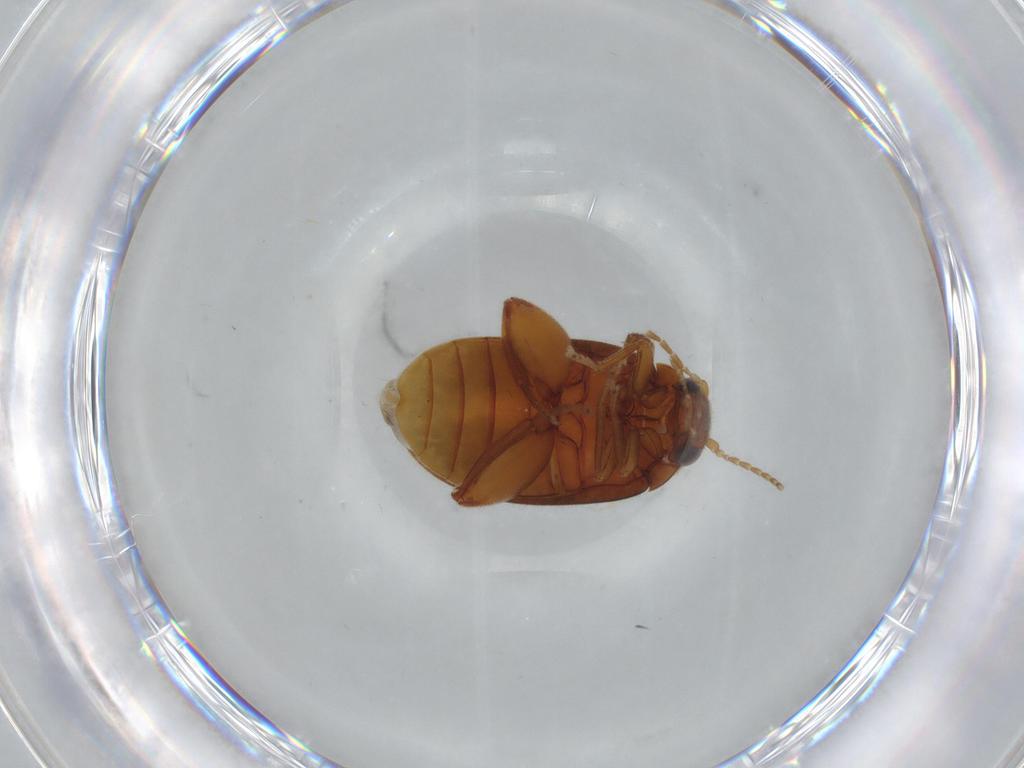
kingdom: Animalia
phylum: Arthropoda
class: Insecta
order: Coleoptera
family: Scirtidae
